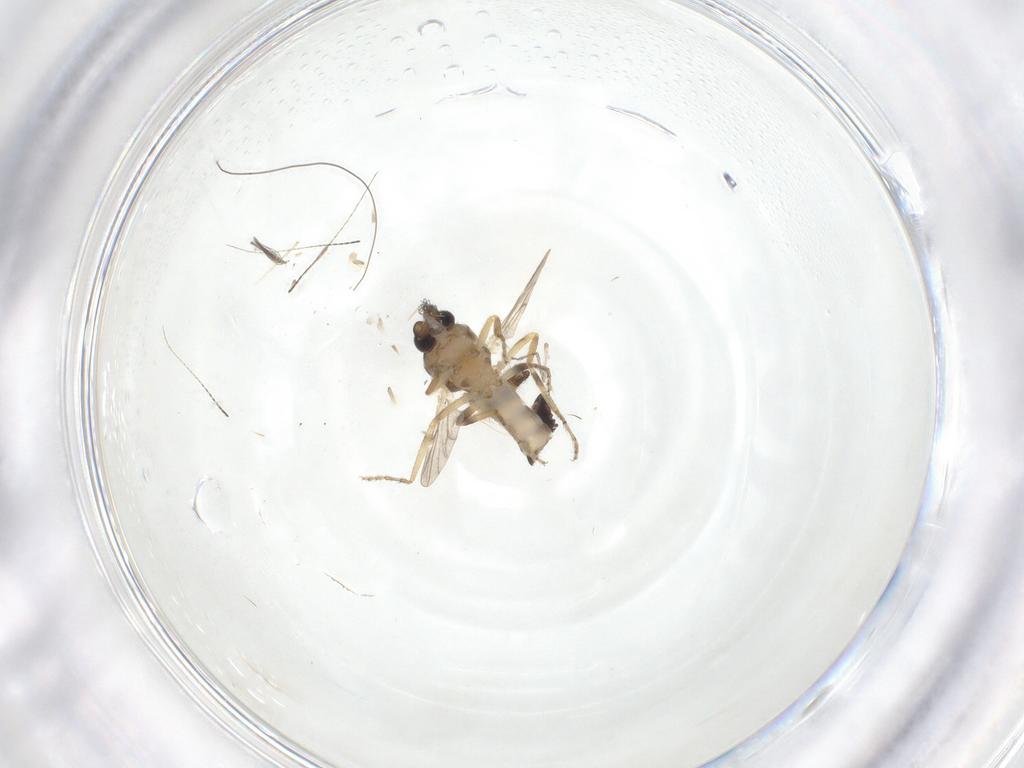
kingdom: Animalia
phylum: Arthropoda
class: Insecta
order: Diptera
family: Ceratopogonidae
